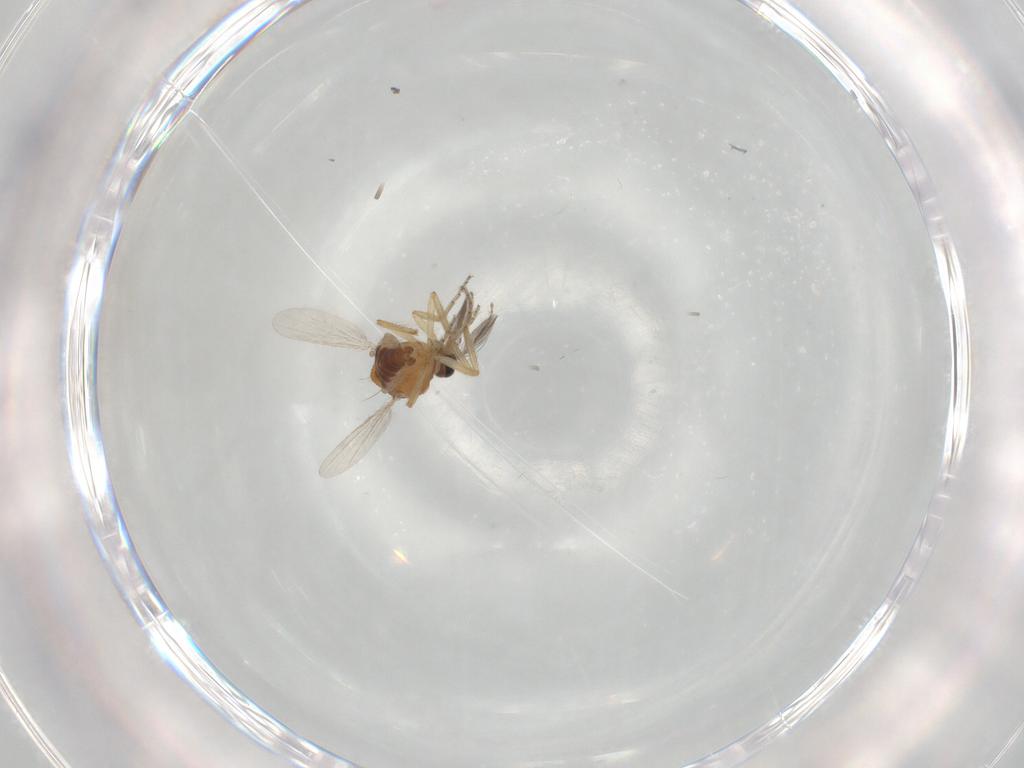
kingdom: Animalia
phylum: Arthropoda
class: Insecta
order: Diptera
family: Ceratopogonidae
